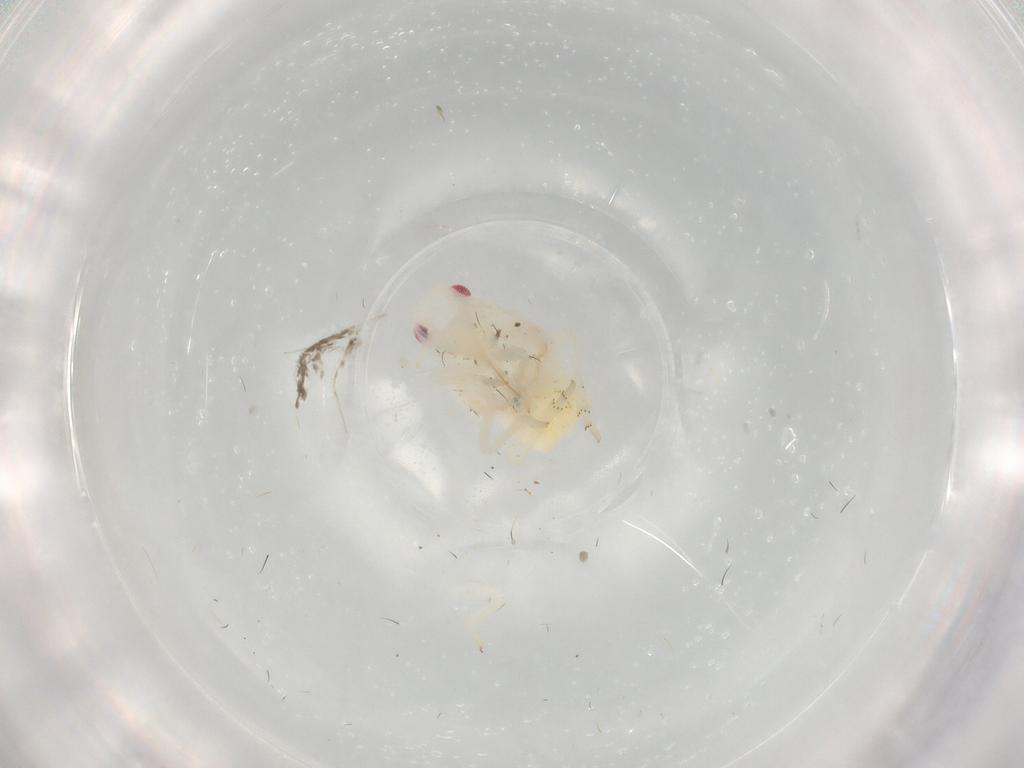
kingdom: Animalia
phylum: Arthropoda
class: Insecta
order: Hemiptera
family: Flatidae
